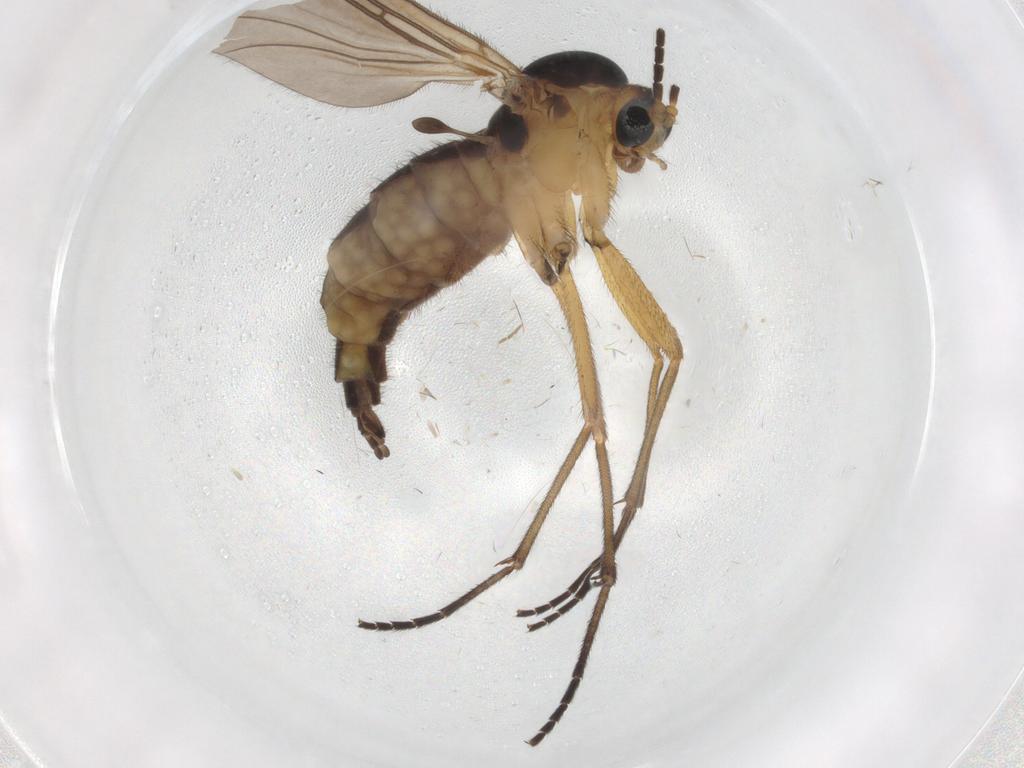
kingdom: Animalia
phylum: Arthropoda
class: Insecta
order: Diptera
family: Sciaridae
